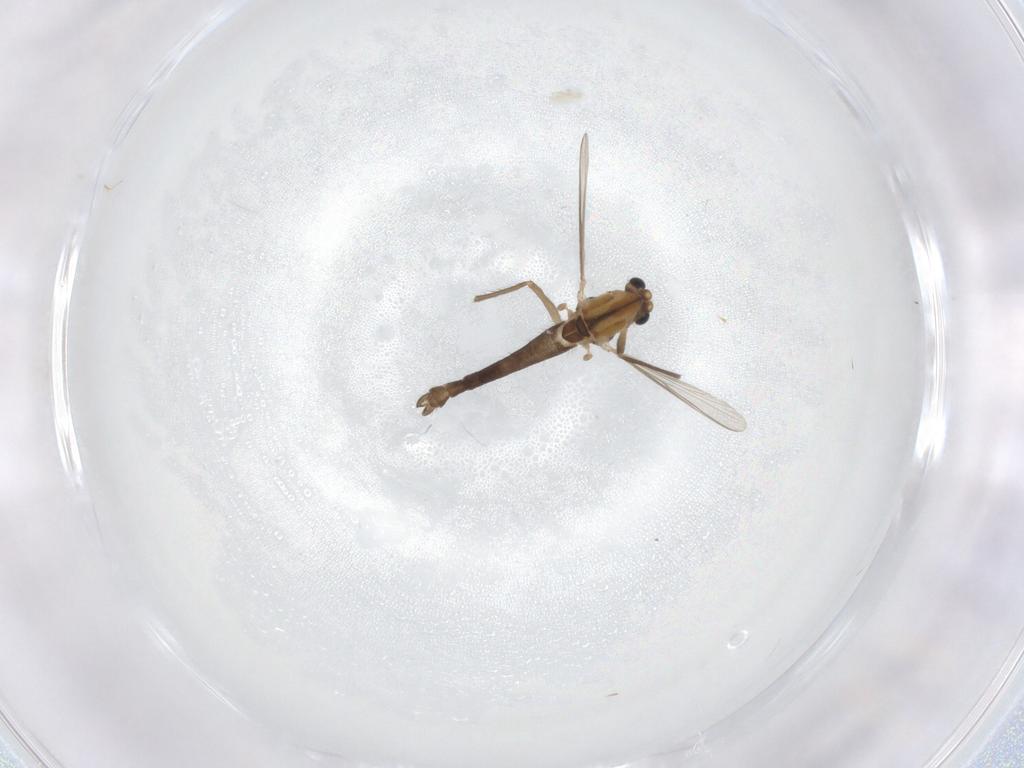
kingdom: Animalia
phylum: Arthropoda
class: Insecta
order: Diptera
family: Chironomidae
